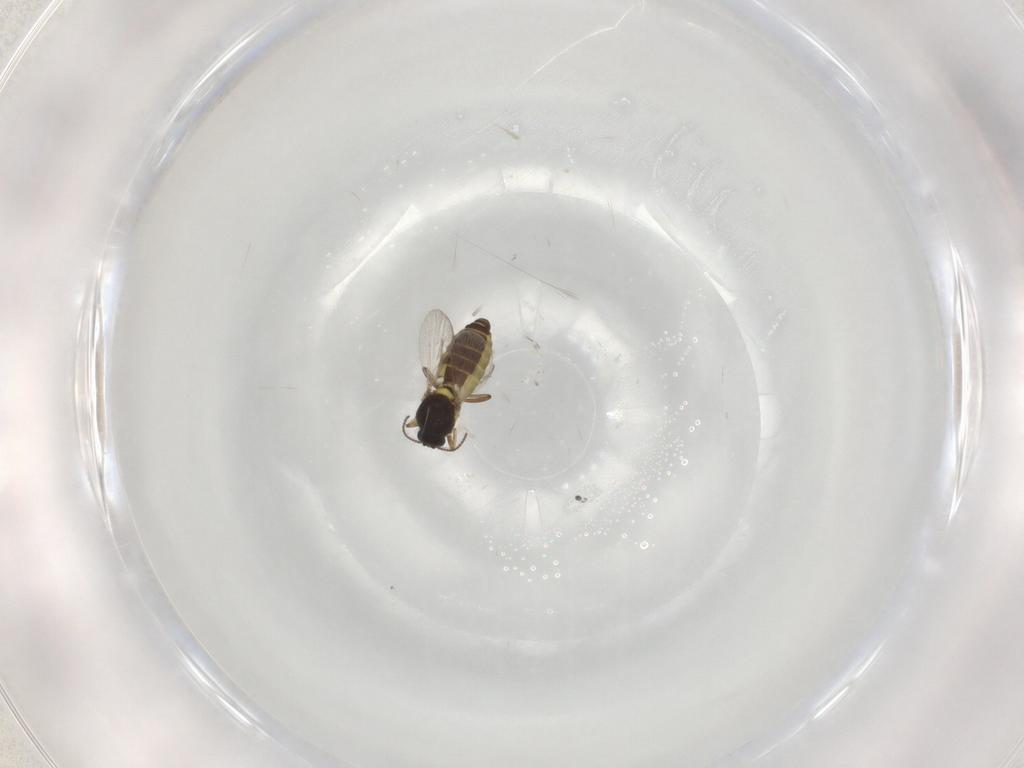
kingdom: Animalia
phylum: Arthropoda
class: Insecta
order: Diptera
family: Ceratopogonidae
